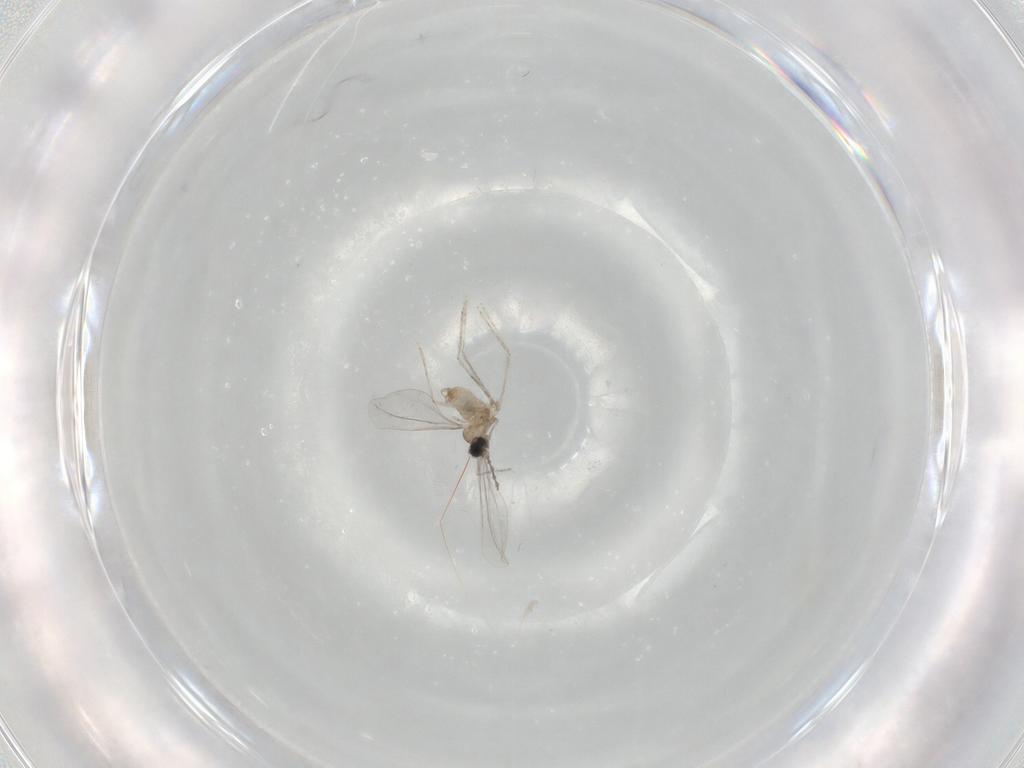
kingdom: Animalia
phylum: Arthropoda
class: Insecta
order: Diptera
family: Cecidomyiidae
